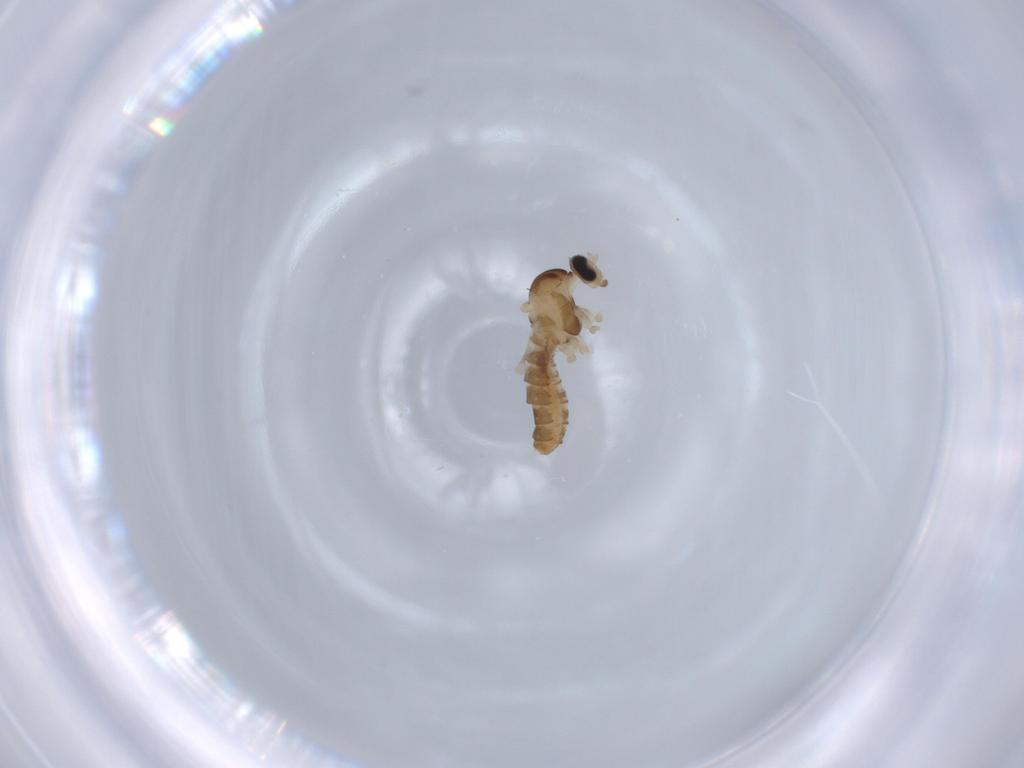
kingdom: Animalia
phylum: Arthropoda
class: Insecta
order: Diptera
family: Cecidomyiidae
